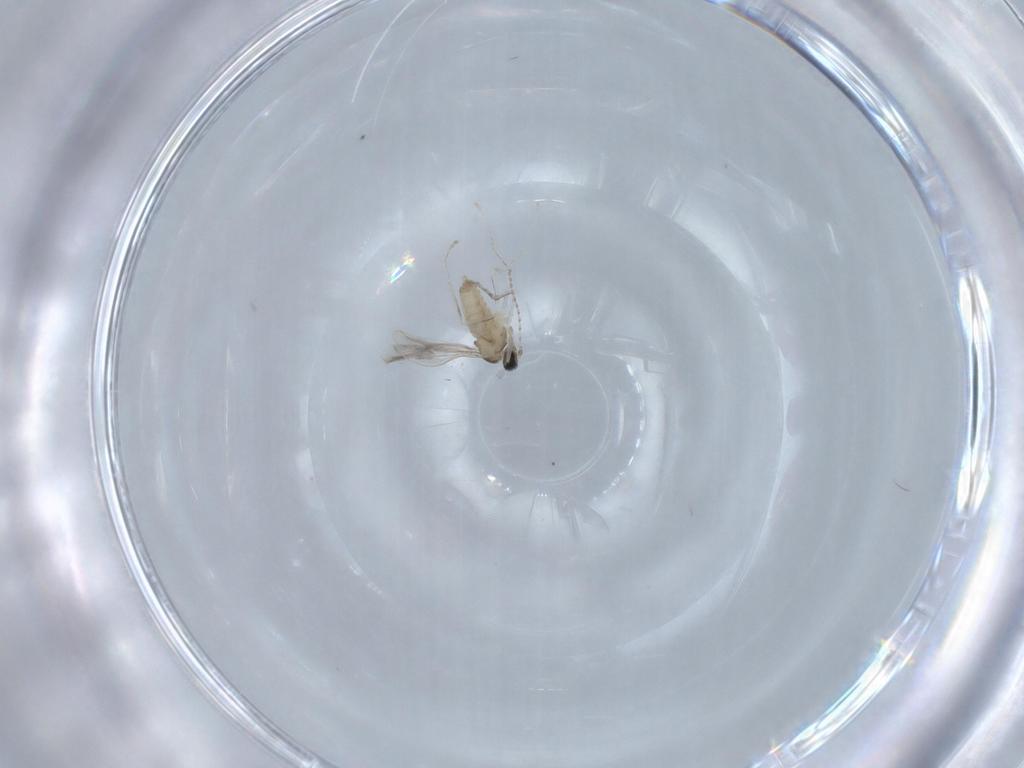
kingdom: Animalia
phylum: Arthropoda
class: Insecta
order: Diptera
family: Cecidomyiidae
